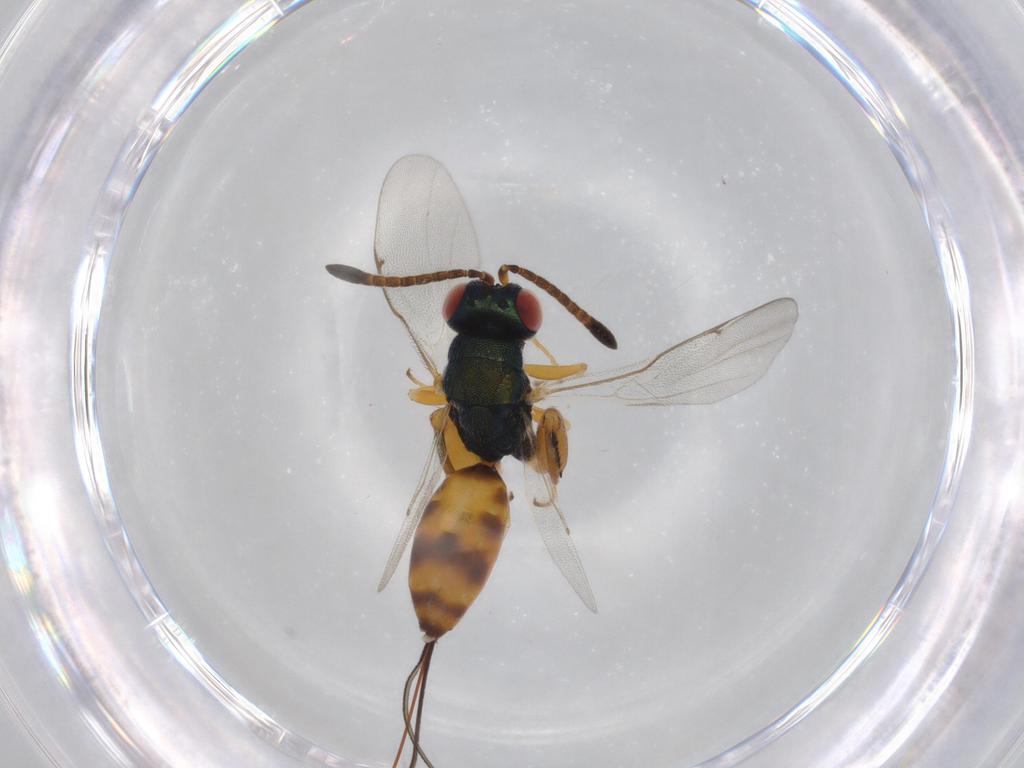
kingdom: Animalia
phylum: Arthropoda
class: Insecta
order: Hymenoptera
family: Torymidae
